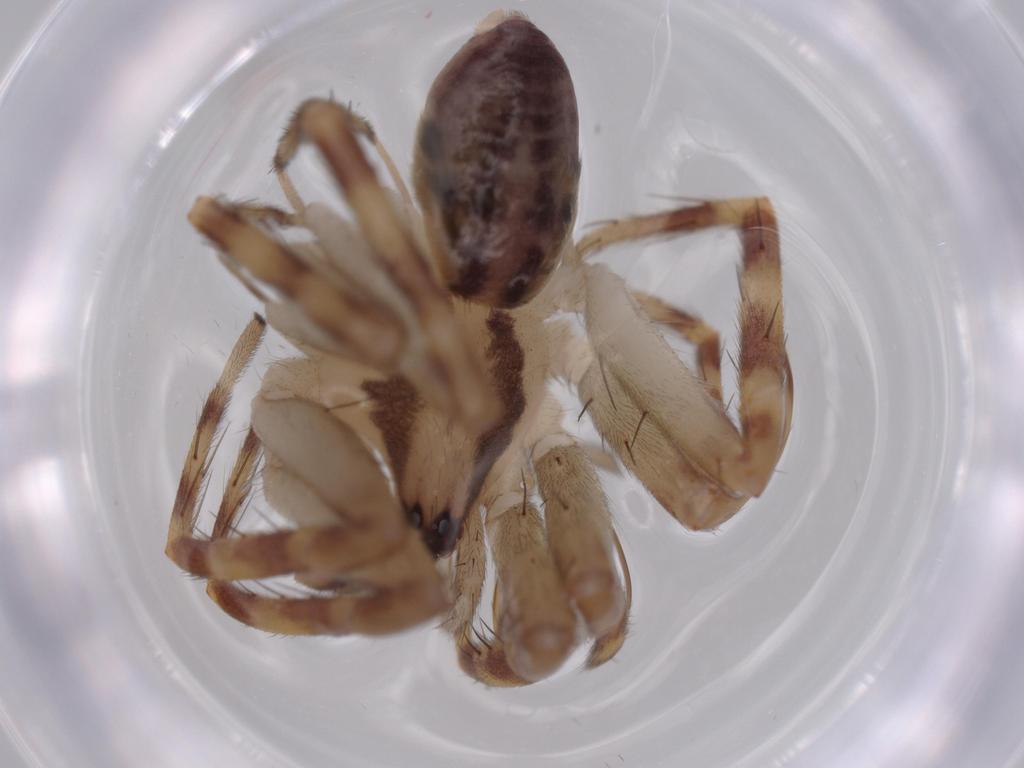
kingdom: Animalia
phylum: Arthropoda
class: Arachnida
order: Araneae
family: Corinnidae
